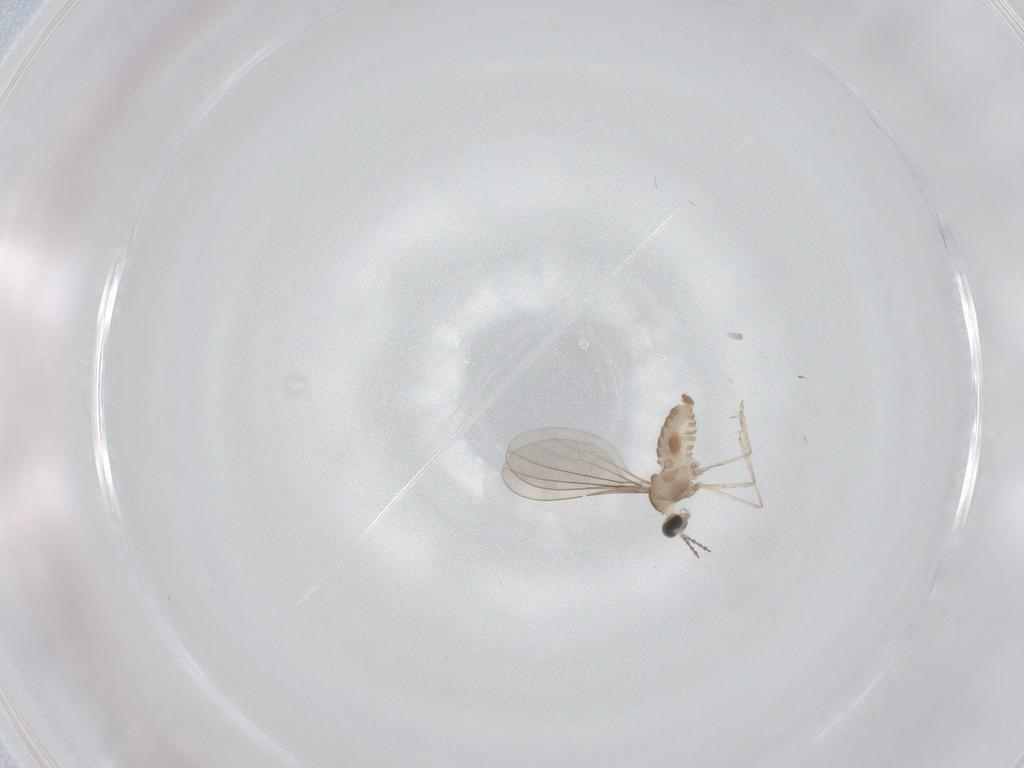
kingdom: Animalia
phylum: Arthropoda
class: Insecta
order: Diptera
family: Cecidomyiidae
